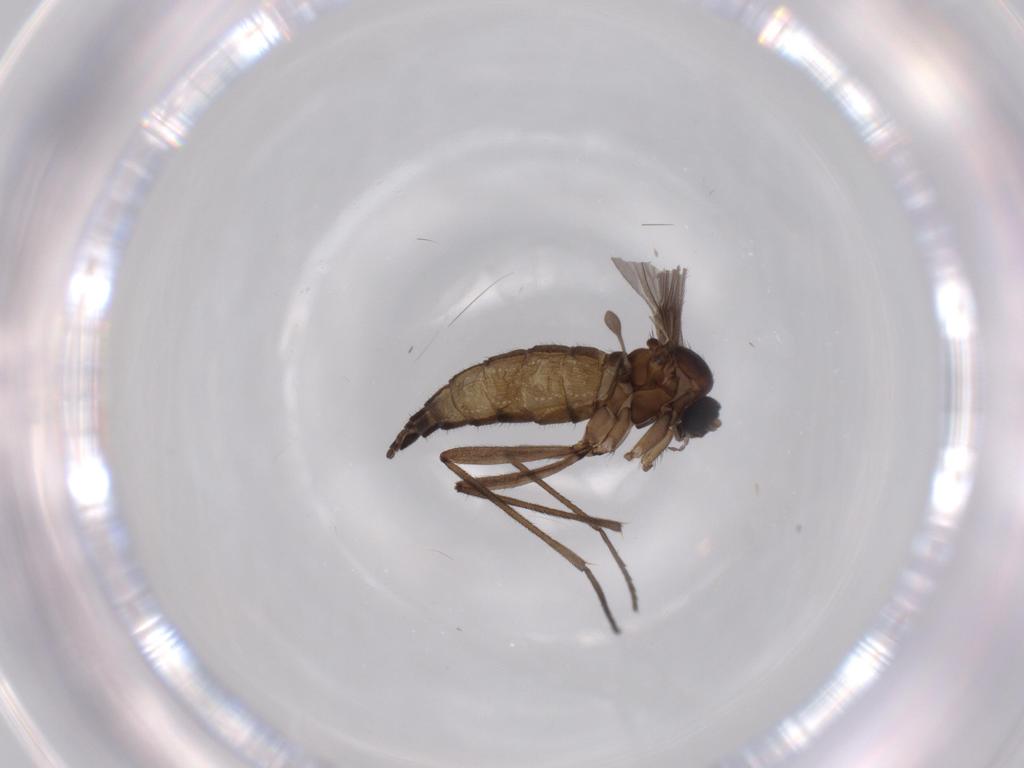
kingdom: Animalia
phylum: Arthropoda
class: Insecta
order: Diptera
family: Sciaridae
